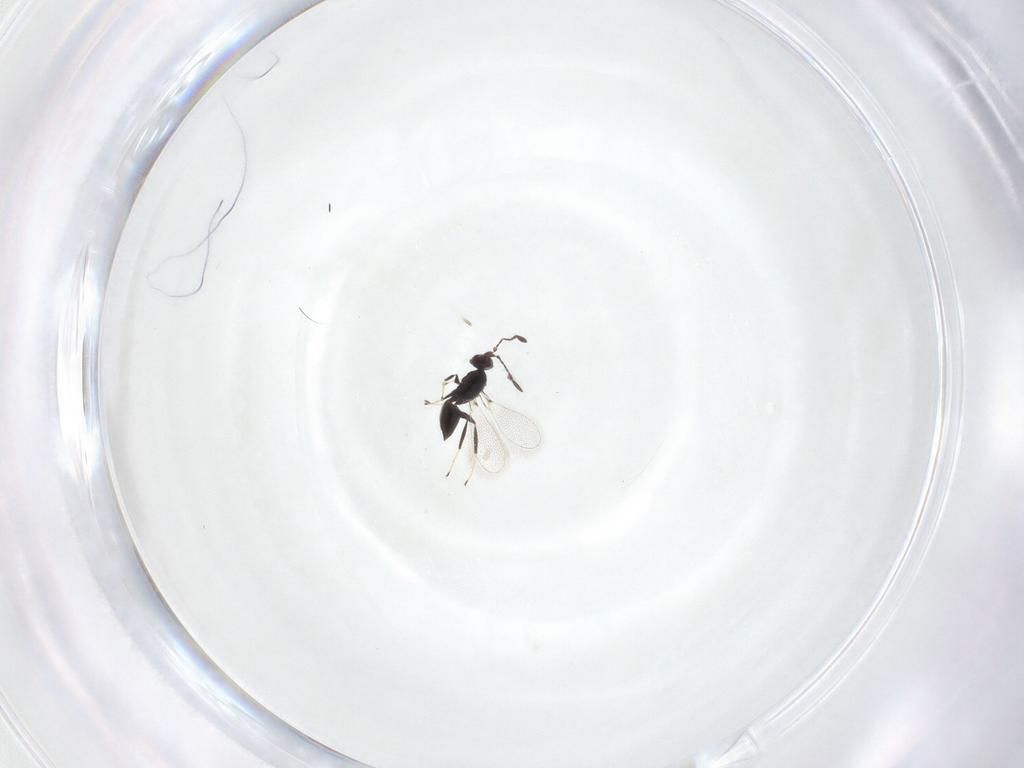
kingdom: Animalia
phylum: Arthropoda
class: Insecta
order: Hymenoptera
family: Mymaridae
